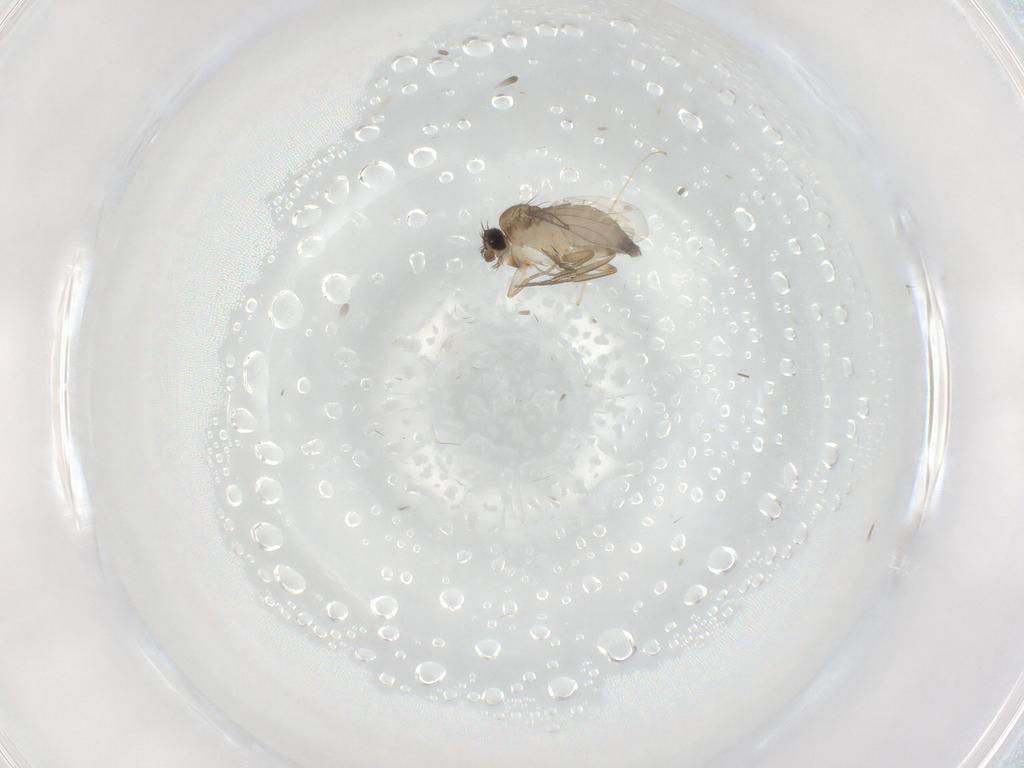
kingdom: Animalia
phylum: Arthropoda
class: Insecta
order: Diptera
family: Phoridae
